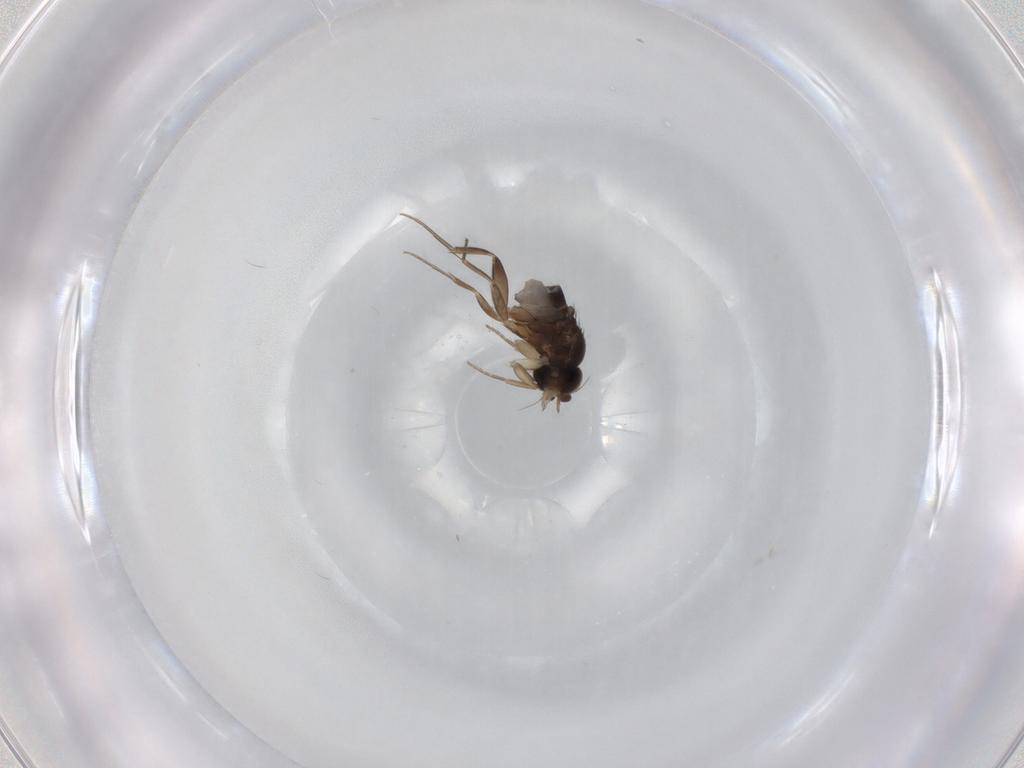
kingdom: Animalia
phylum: Arthropoda
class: Insecta
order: Diptera
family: Phoridae
